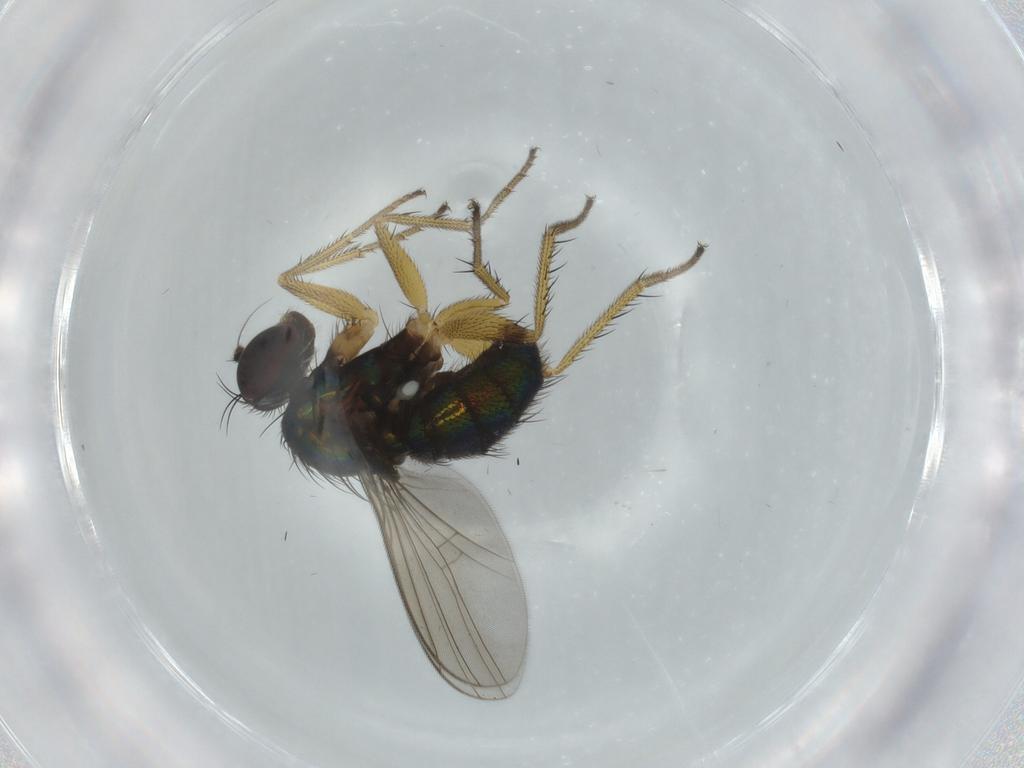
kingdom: Animalia
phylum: Arthropoda
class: Insecta
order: Diptera
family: Dolichopodidae
